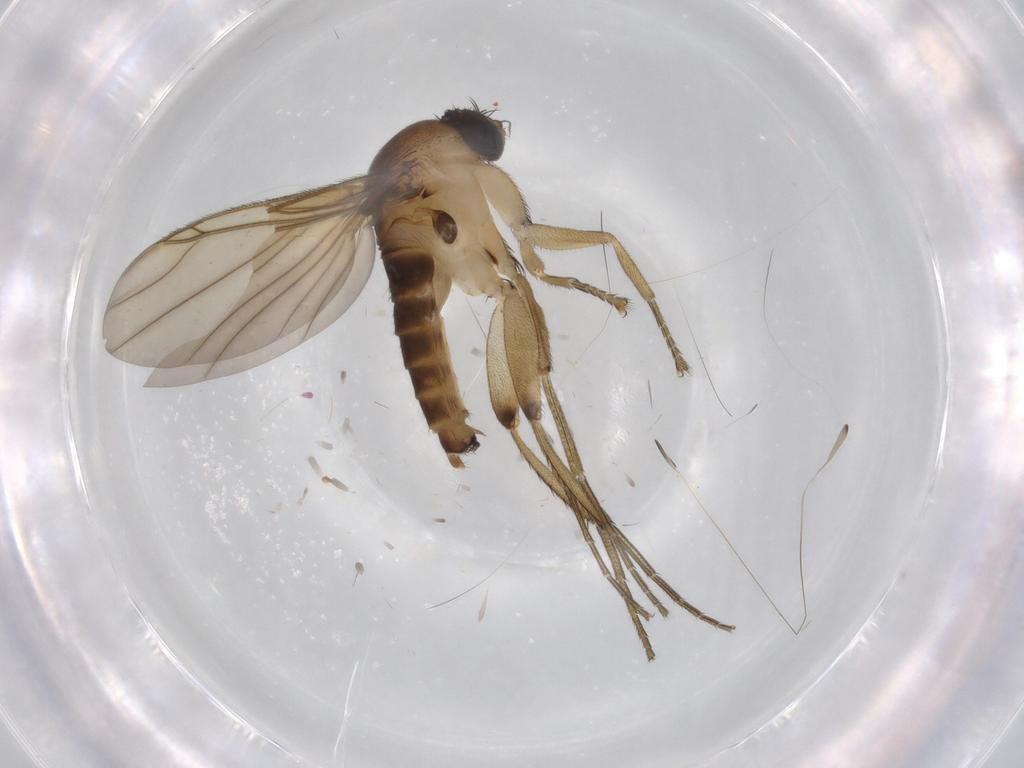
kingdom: Animalia
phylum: Arthropoda
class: Insecta
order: Diptera
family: Phoridae
